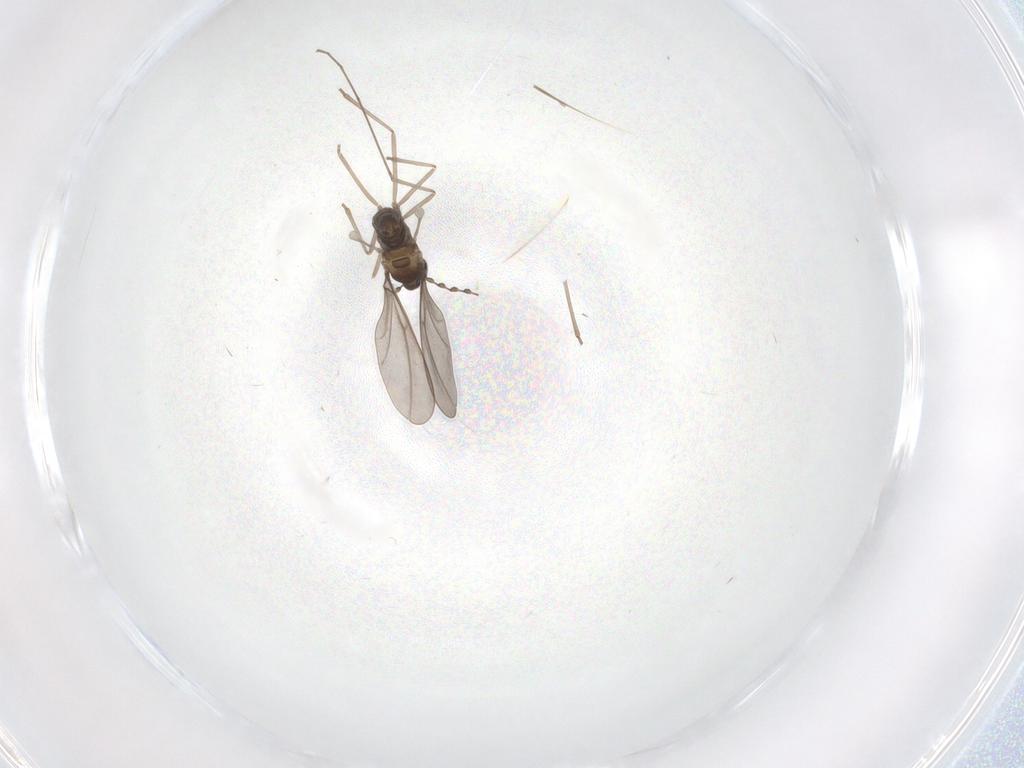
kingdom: Animalia
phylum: Arthropoda
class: Insecta
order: Diptera
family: Cecidomyiidae
